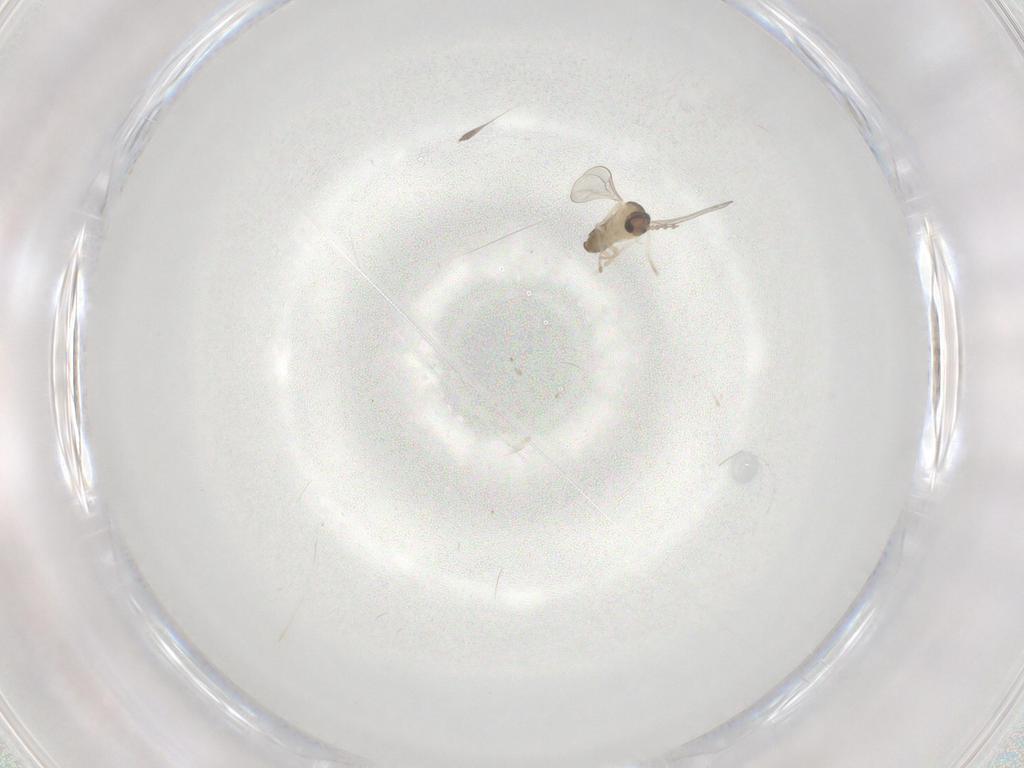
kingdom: Animalia
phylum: Arthropoda
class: Insecta
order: Diptera
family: Cecidomyiidae
